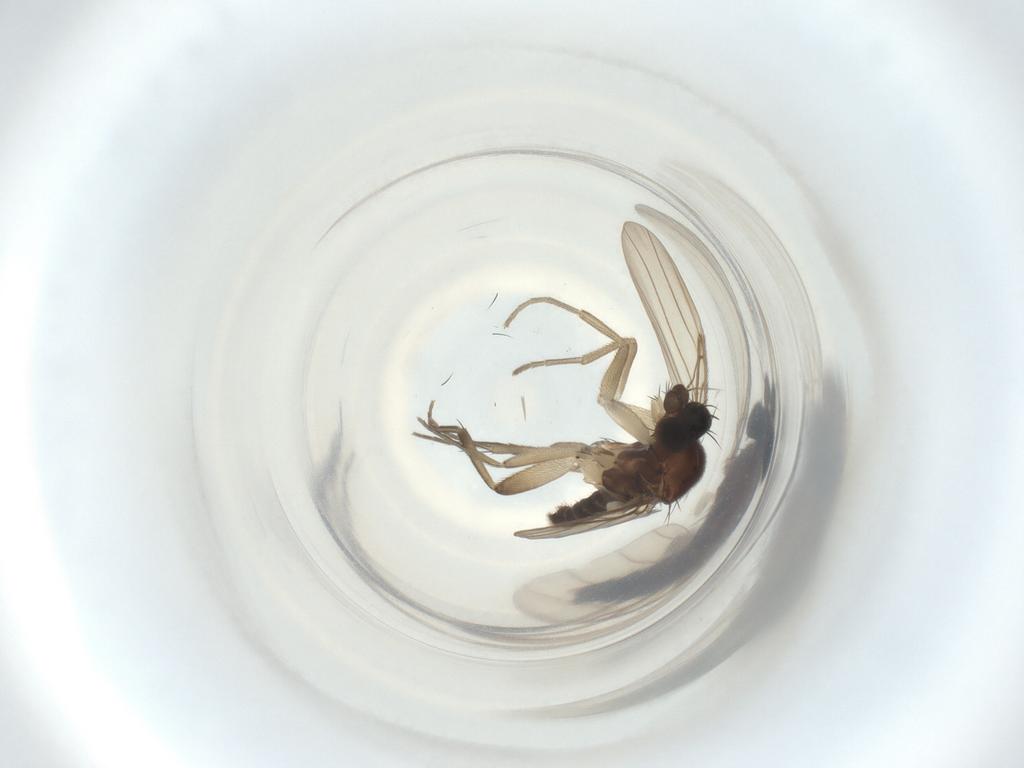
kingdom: Animalia
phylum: Arthropoda
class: Insecta
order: Diptera
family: Phoridae
